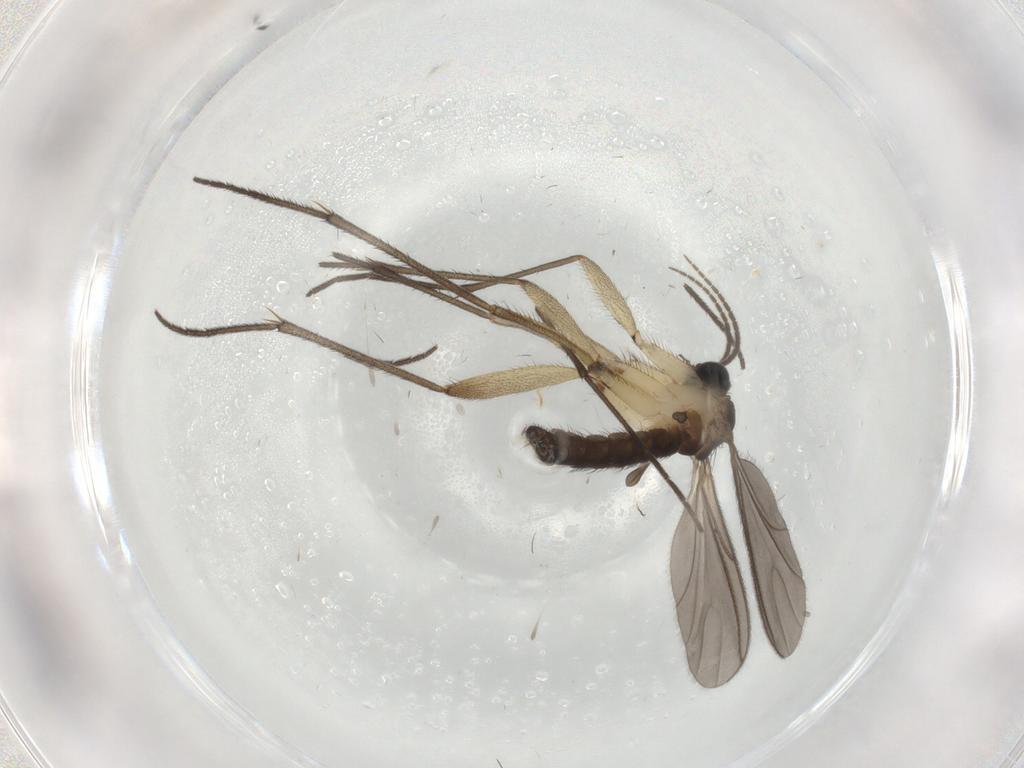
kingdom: Animalia
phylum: Arthropoda
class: Insecta
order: Diptera
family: Sciaridae
